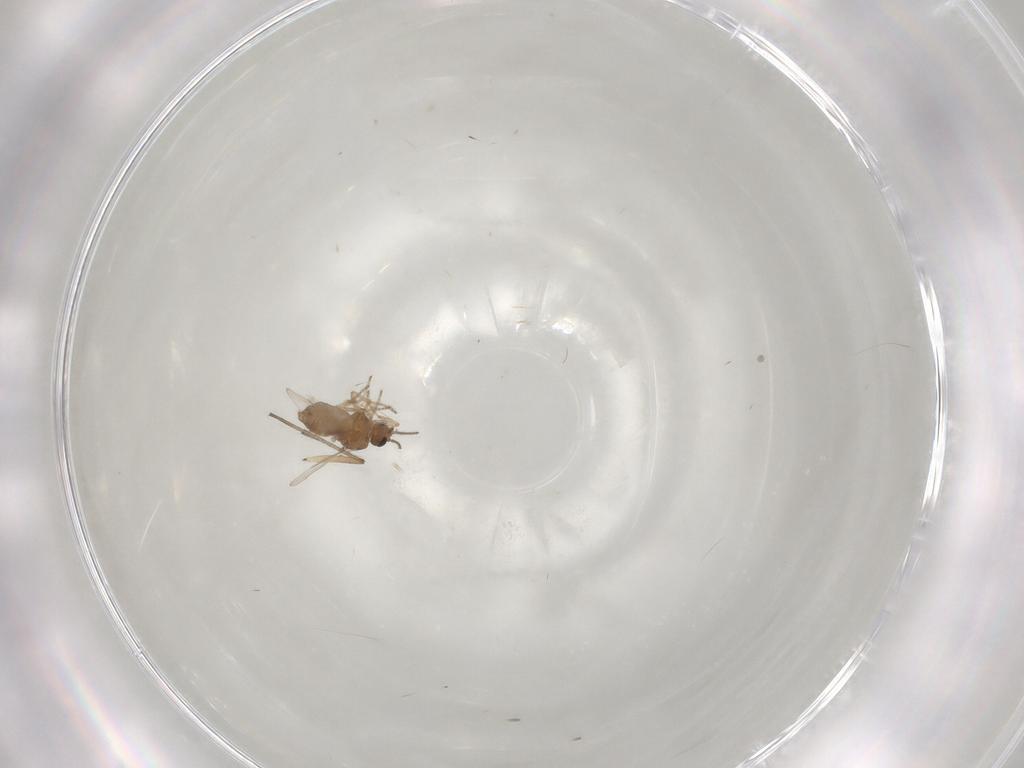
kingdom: Animalia
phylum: Arthropoda
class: Insecta
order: Diptera
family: Ceratopogonidae
